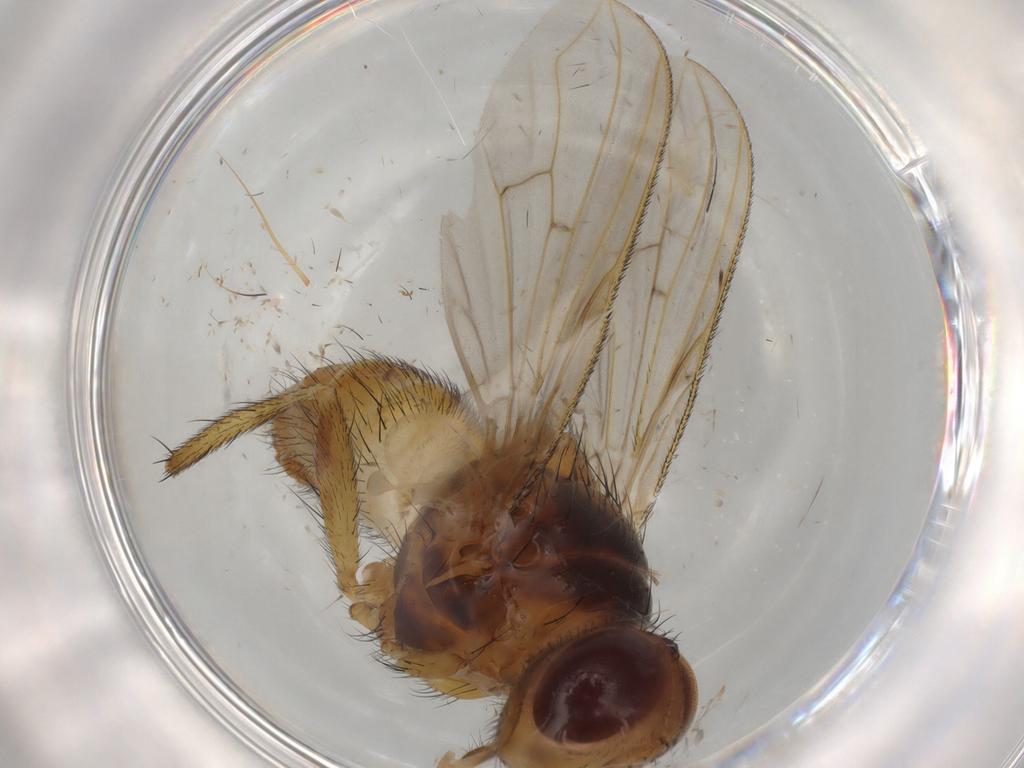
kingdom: Animalia
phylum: Arthropoda
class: Insecta
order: Diptera
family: Tachinidae
